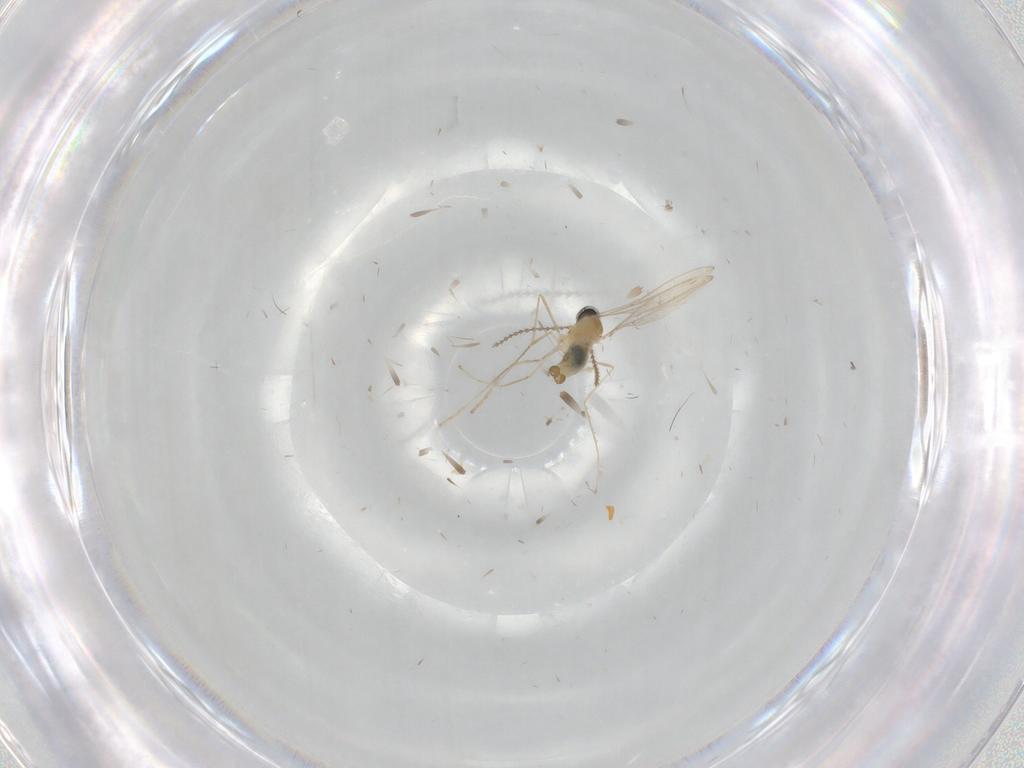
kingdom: Animalia
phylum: Arthropoda
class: Insecta
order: Diptera
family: Cecidomyiidae
